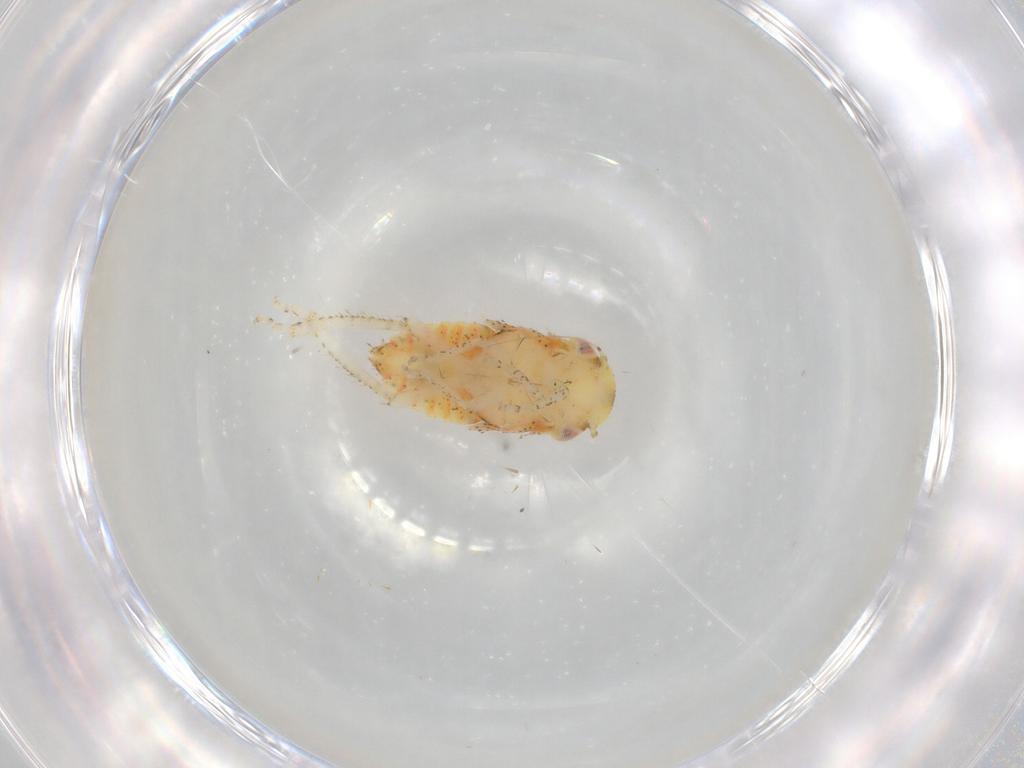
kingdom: Animalia
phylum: Arthropoda
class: Insecta
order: Hemiptera
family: Cicadellidae
